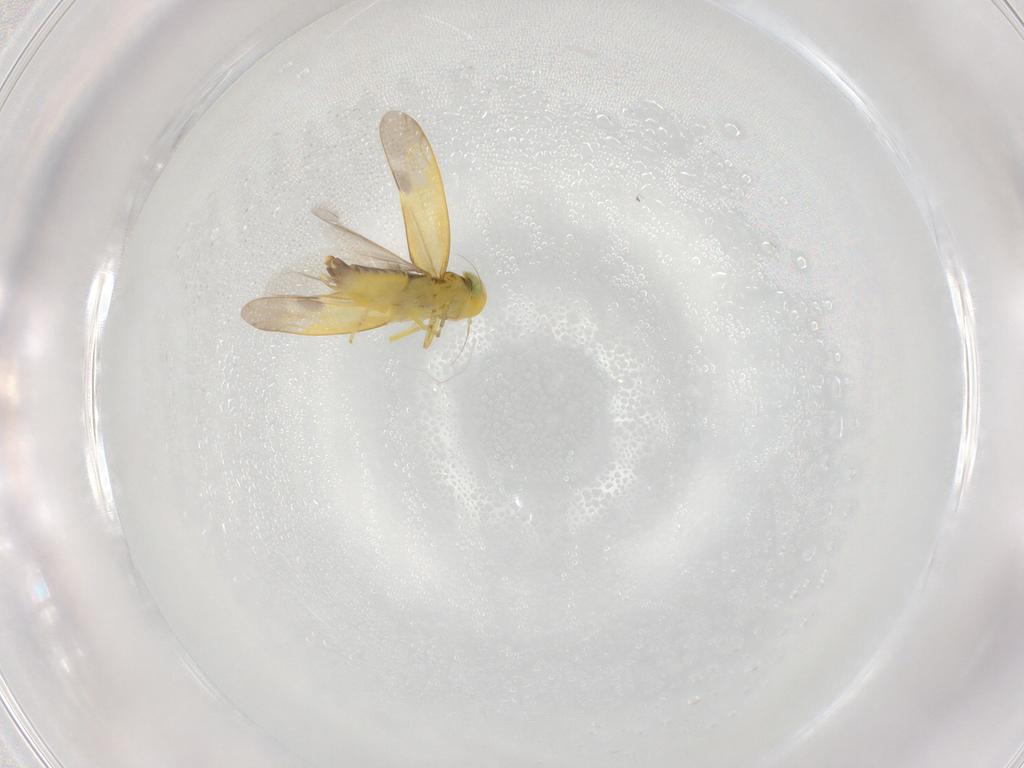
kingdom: Animalia
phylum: Arthropoda
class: Insecta
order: Hemiptera
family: Cicadellidae
